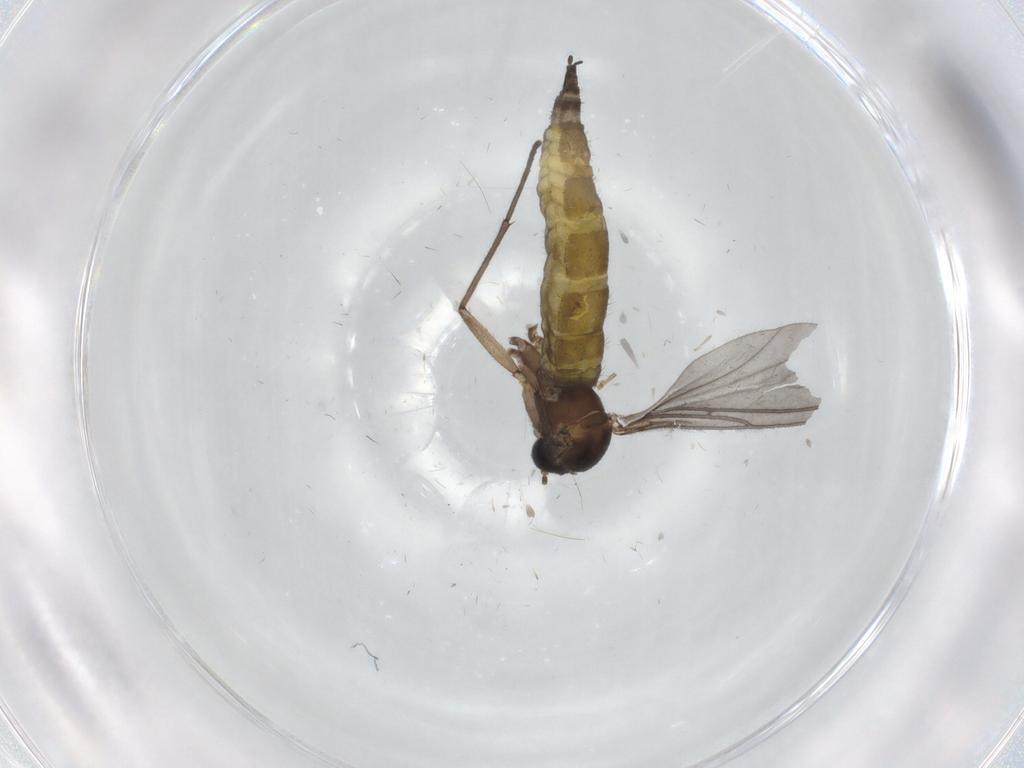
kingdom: Animalia
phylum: Arthropoda
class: Insecta
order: Diptera
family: Sciaridae
